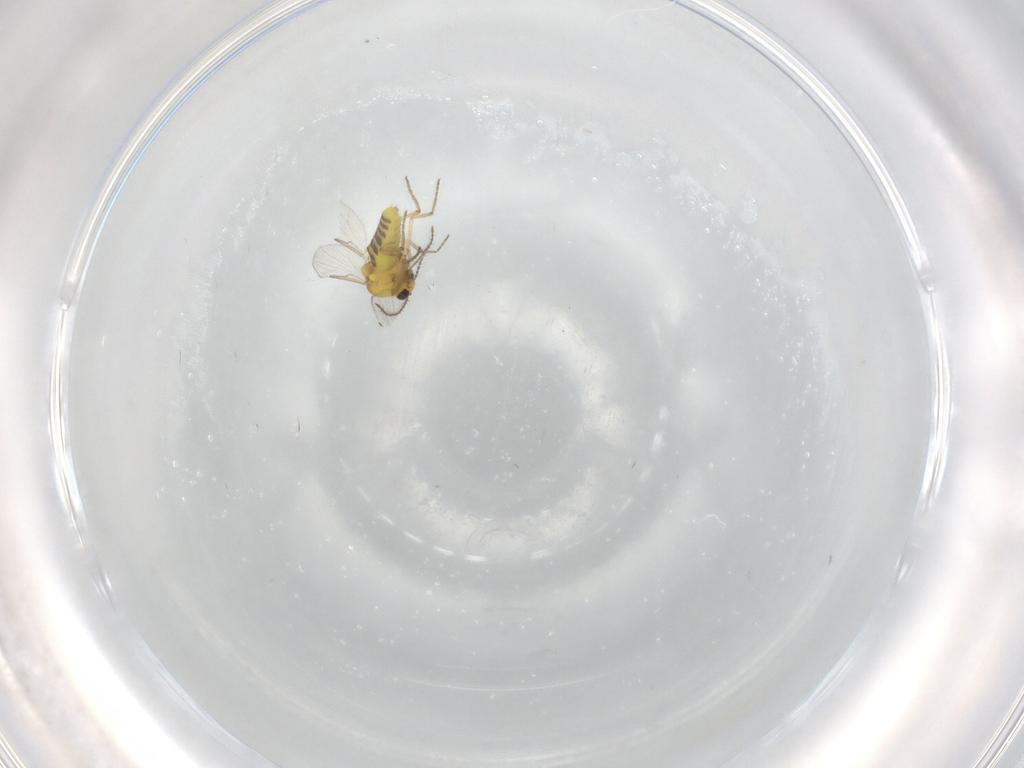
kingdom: Animalia
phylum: Arthropoda
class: Insecta
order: Diptera
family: Ceratopogonidae
